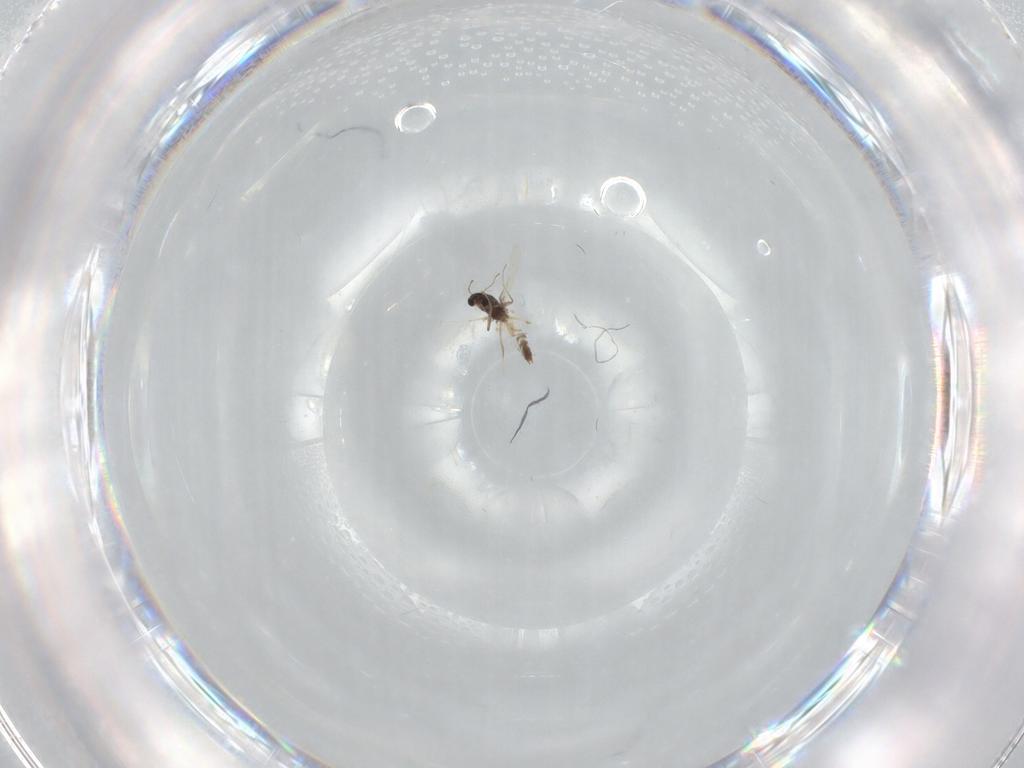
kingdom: Animalia
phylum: Arthropoda
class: Insecta
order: Diptera
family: Chironomidae
